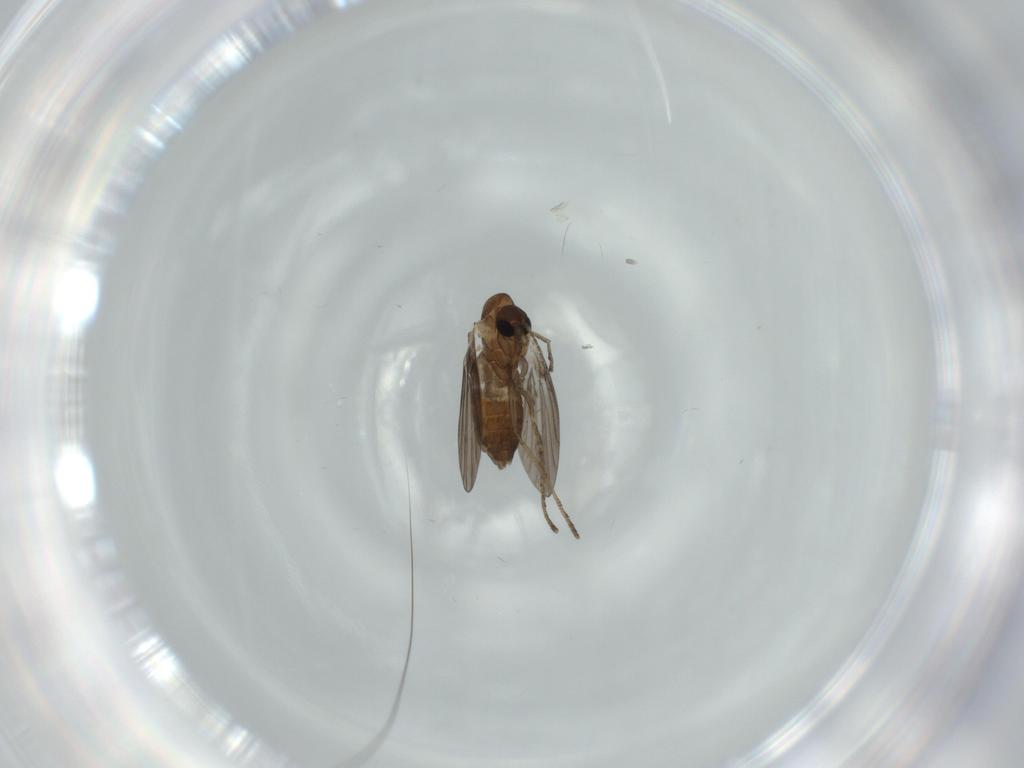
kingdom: Animalia
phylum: Arthropoda
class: Insecta
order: Diptera
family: Cecidomyiidae
